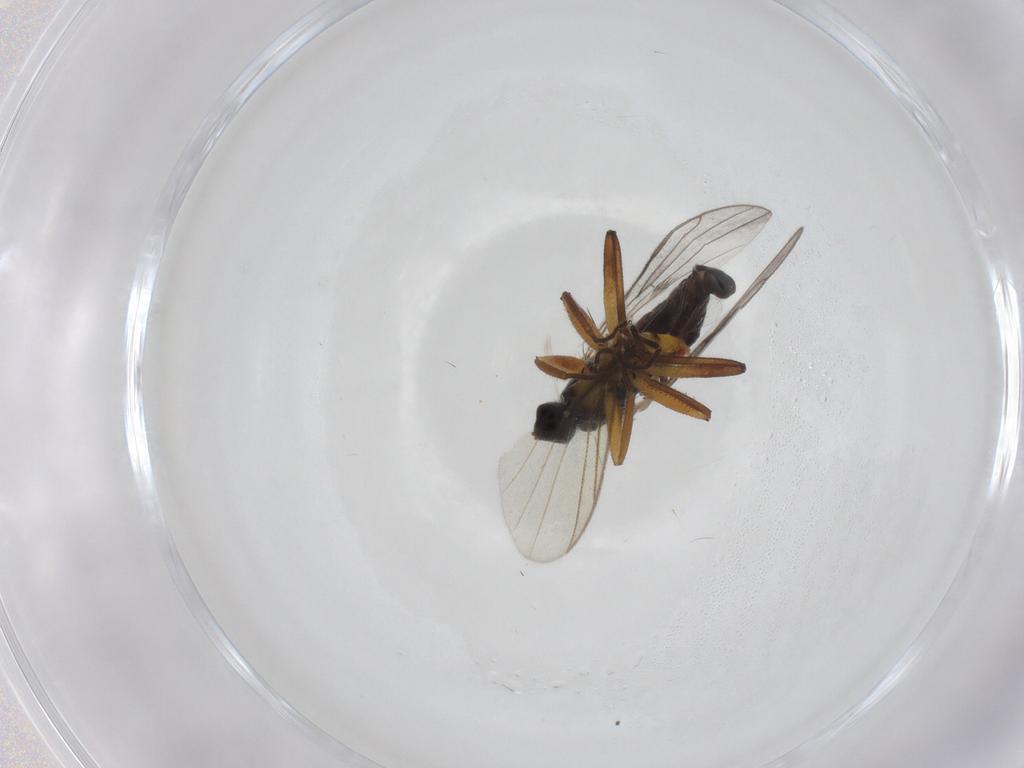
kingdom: Animalia
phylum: Arthropoda
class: Insecta
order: Diptera
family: Hybotidae
